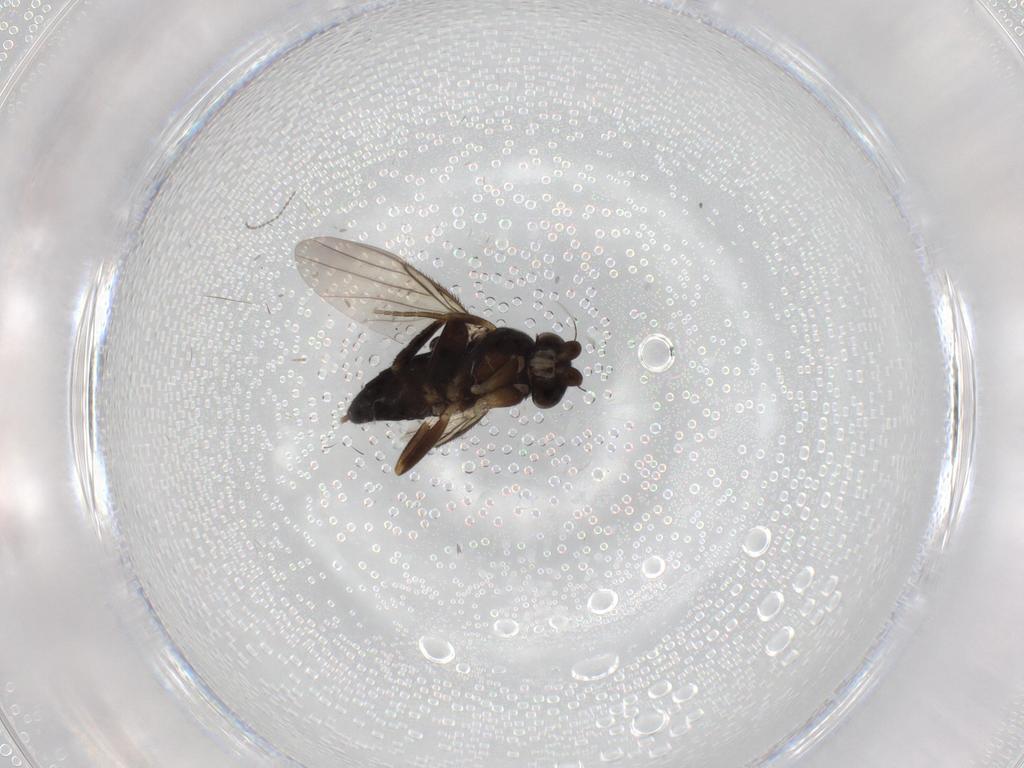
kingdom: Animalia
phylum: Arthropoda
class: Insecta
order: Diptera
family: Cecidomyiidae
